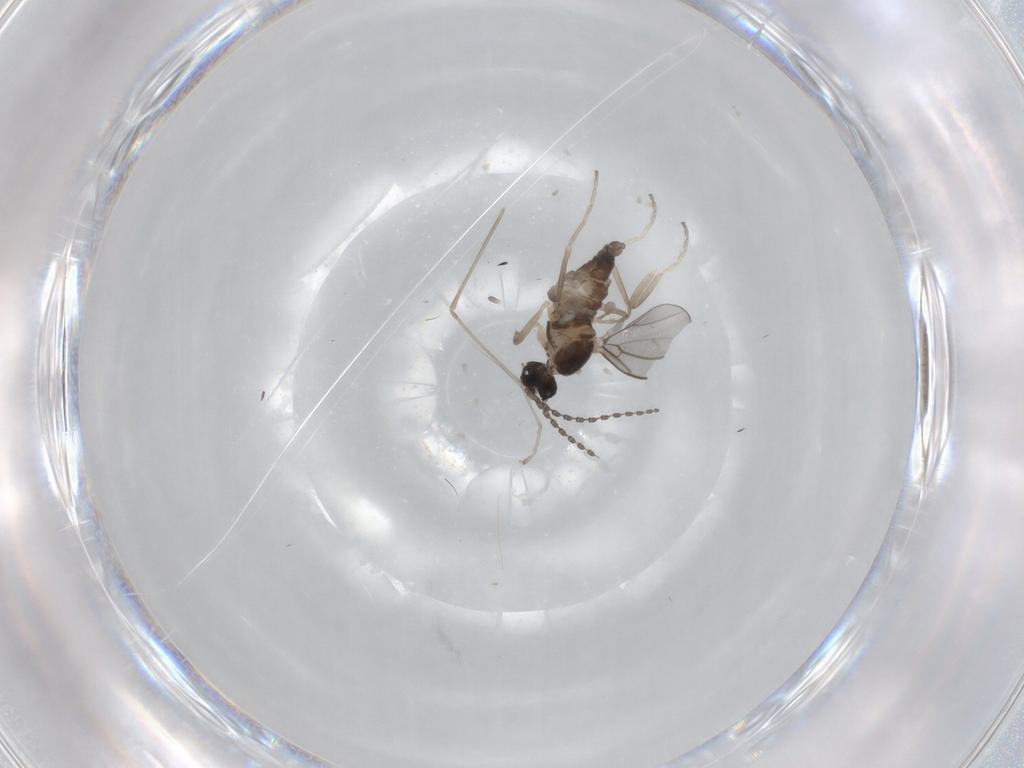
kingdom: Animalia
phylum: Arthropoda
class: Insecta
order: Diptera
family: Cecidomyiidae
